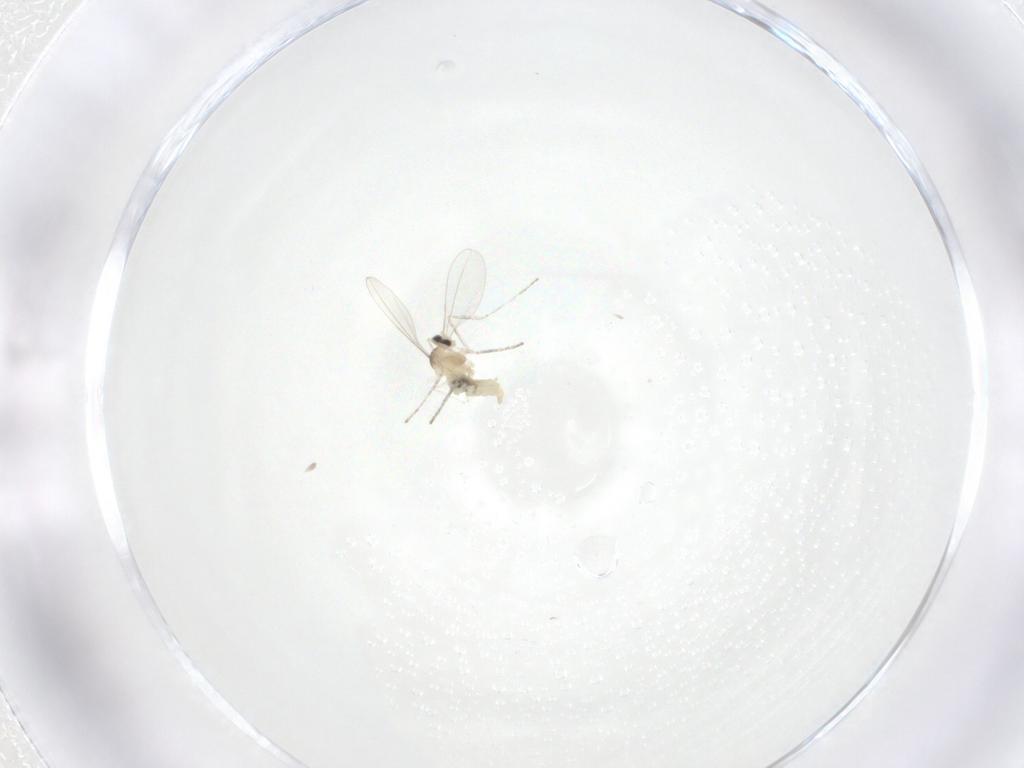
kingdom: Animalia
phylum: Arthropoda
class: Insecta
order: Diptera
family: Cecidomyiidae
